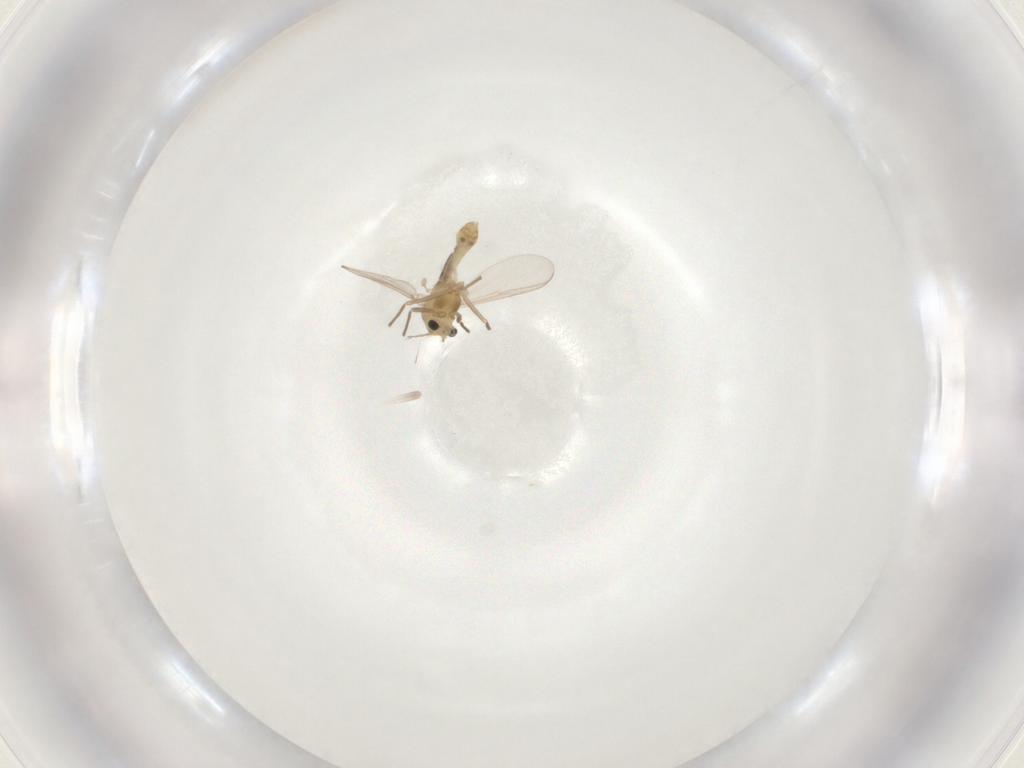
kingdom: Animalia
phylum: Arthropoda
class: Insecta
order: Diptera
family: Chironomidae
